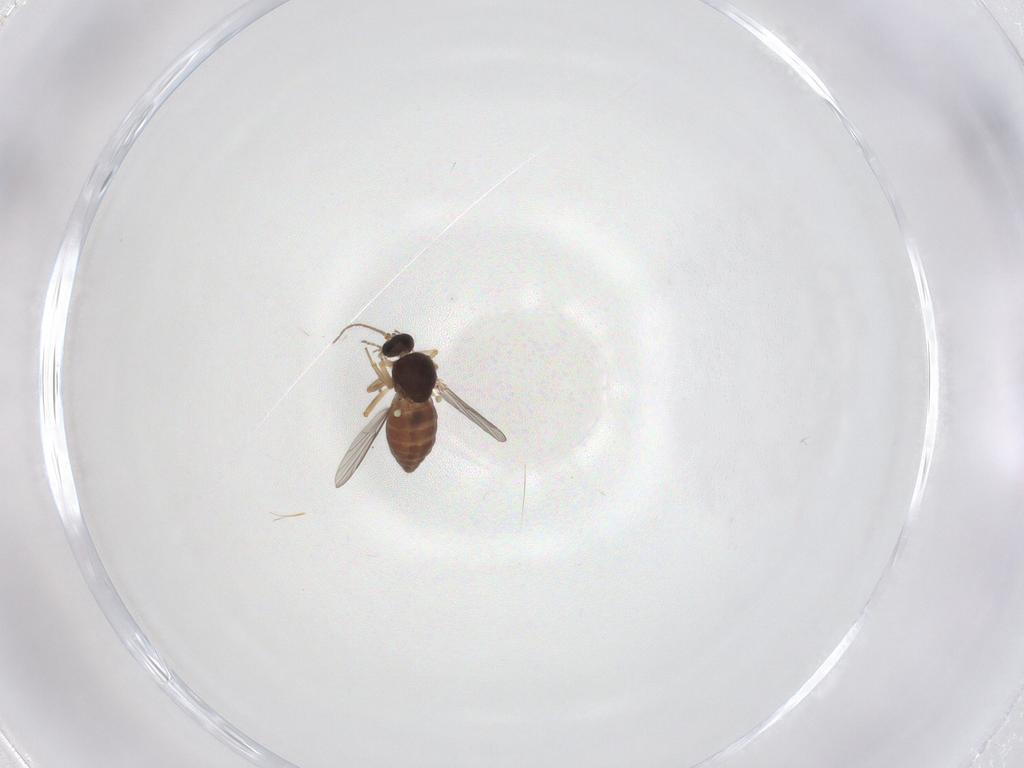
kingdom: Animalia
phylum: Arthropoda
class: Insecta
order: Diptera
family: Ceratopogonidae
